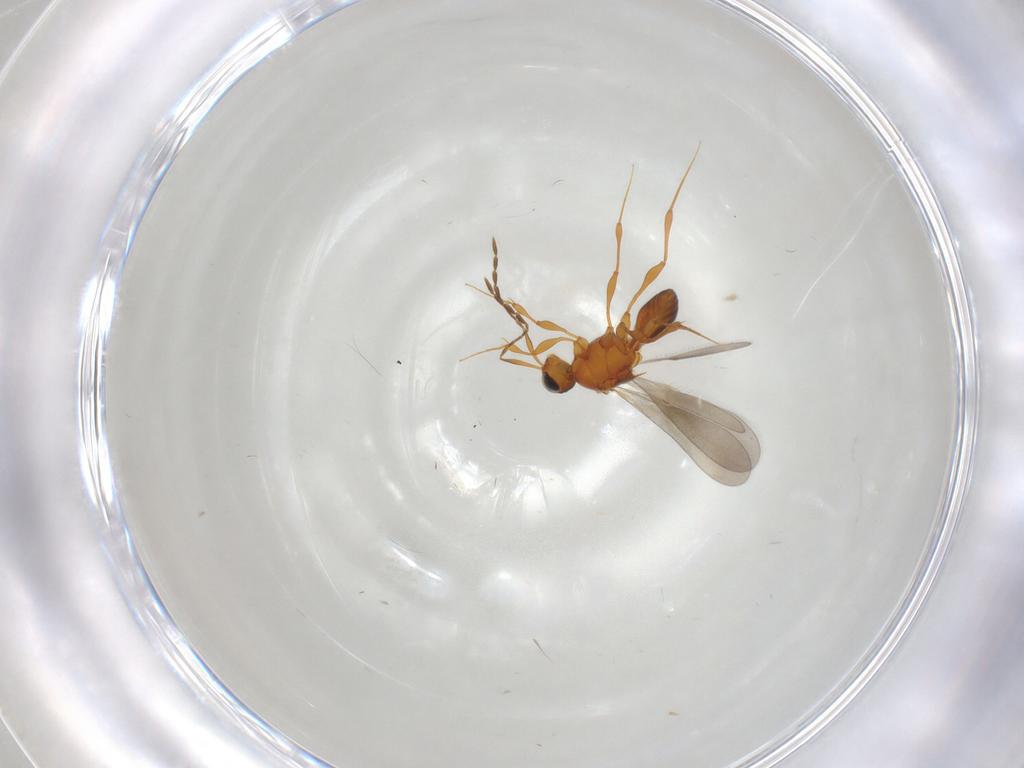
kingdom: Animalia
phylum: Arthropoda
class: Insecta
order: Hymenoptera
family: Platygastridae
